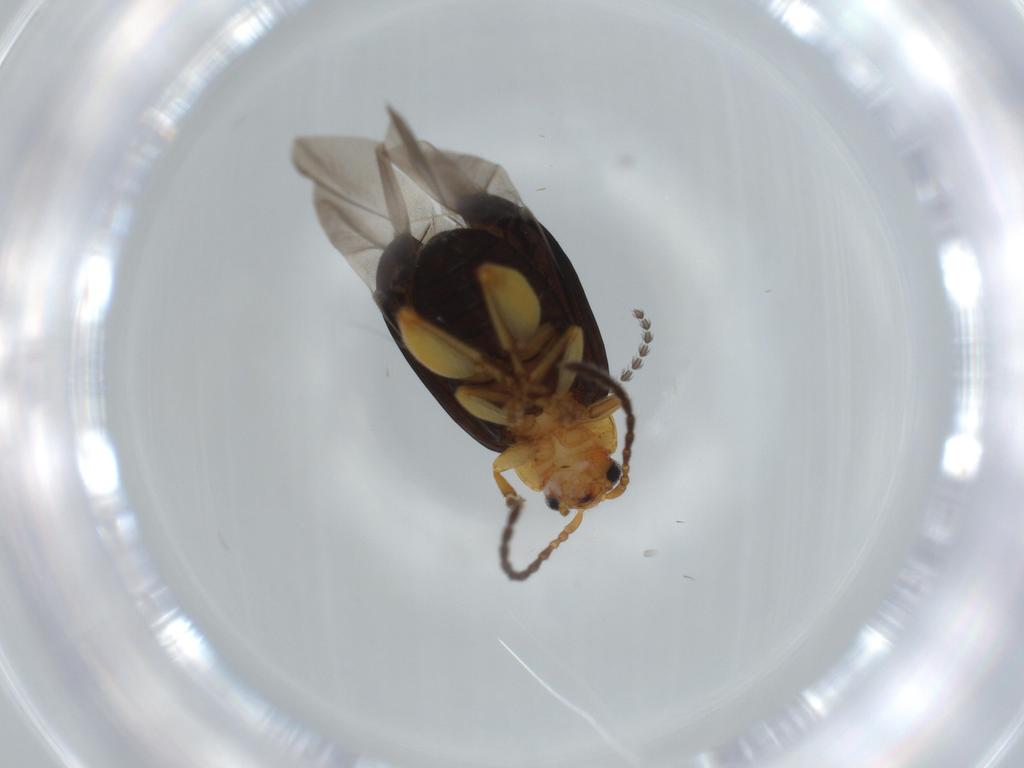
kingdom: Animalia
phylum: Arthropoda
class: Insecta
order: Coleoptera
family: Chrysomelidae
